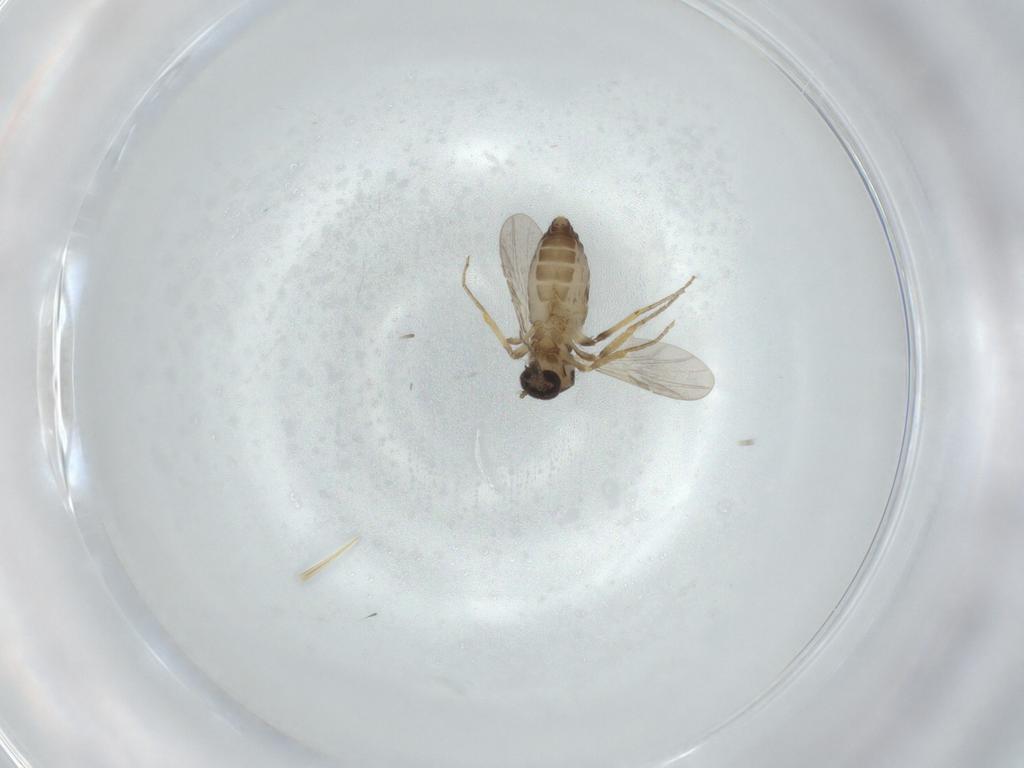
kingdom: Animalia
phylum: Arthropoda
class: Insecta
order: Diptera
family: Ceratopogonidae
